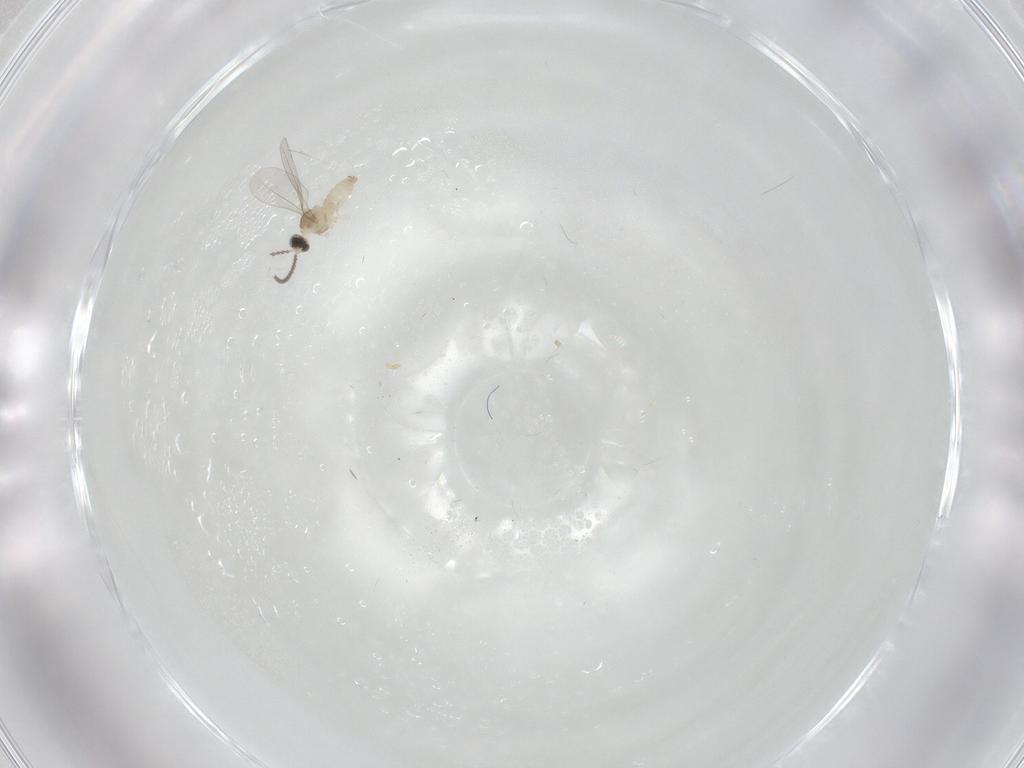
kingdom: Animalia
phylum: Arthropoda
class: Insecta
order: Diptera
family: Cecidomyiidae
